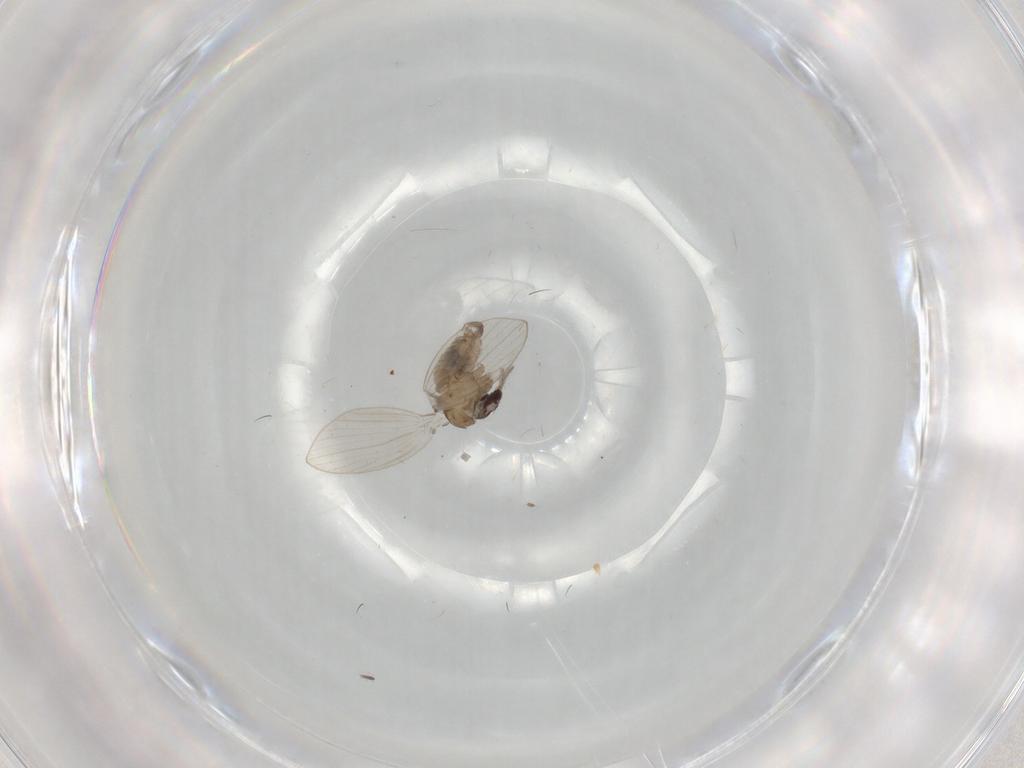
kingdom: Animalia
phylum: Arthropoda
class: Insecta
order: Diptera
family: Psychodidae
